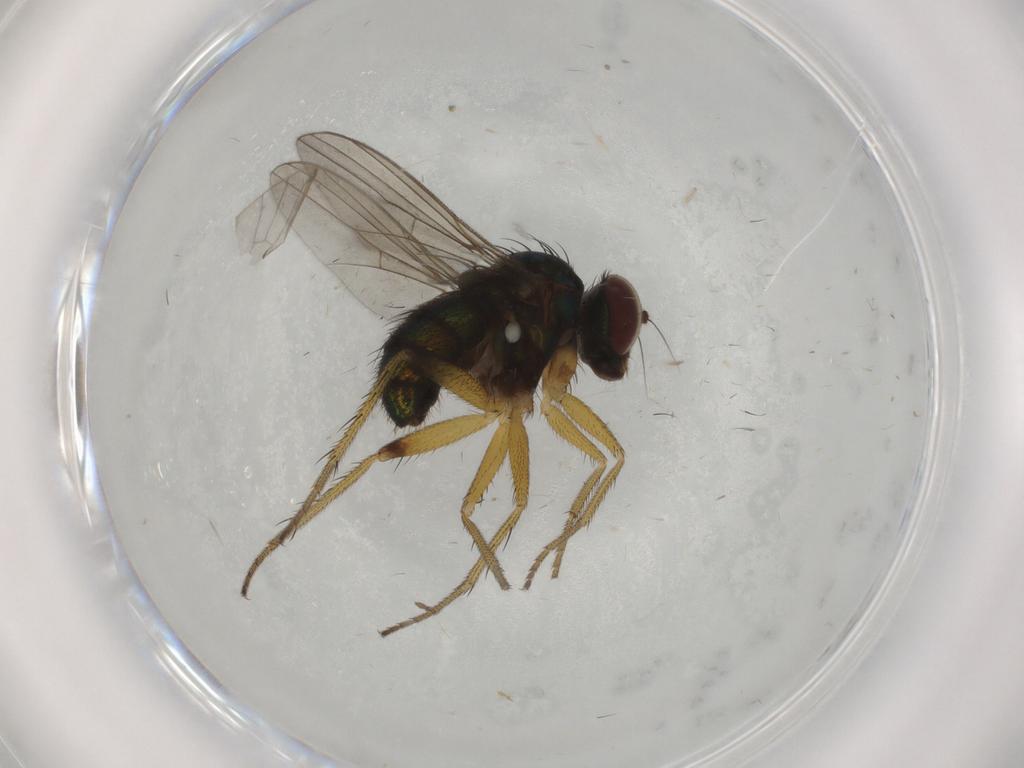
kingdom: Animalia
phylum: Arthropoda
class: Insecta
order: Diptera
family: Dolichopodidae
